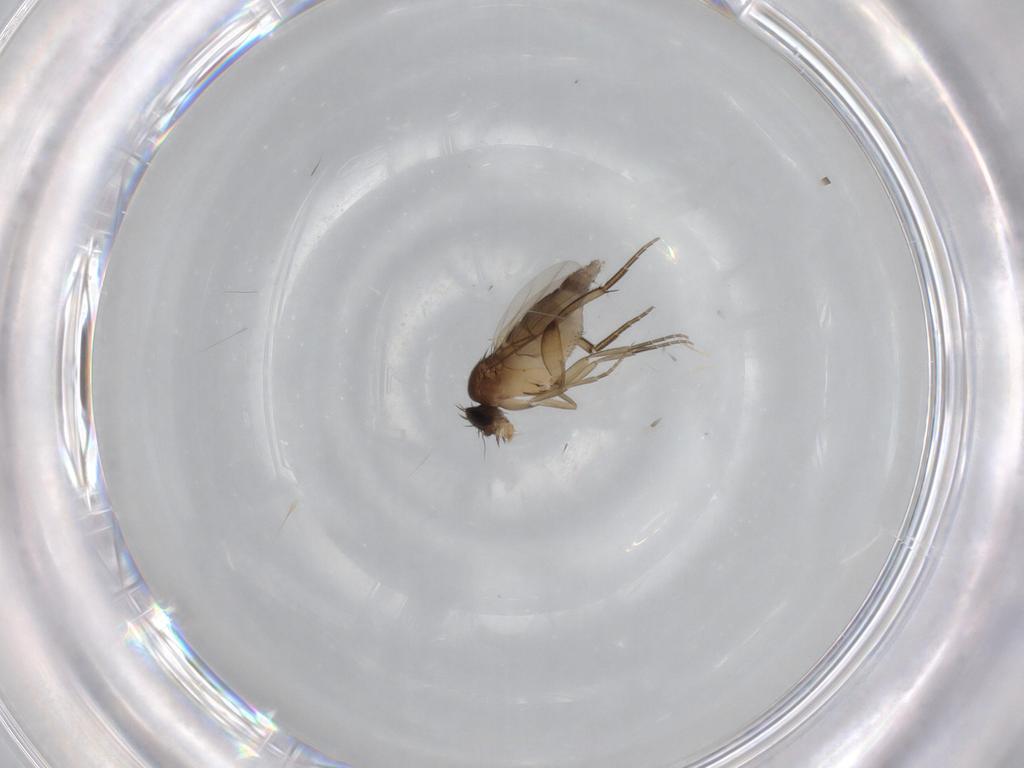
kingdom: Animalia
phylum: Arthropoda
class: Insecta
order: Diptera
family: Phoridae
